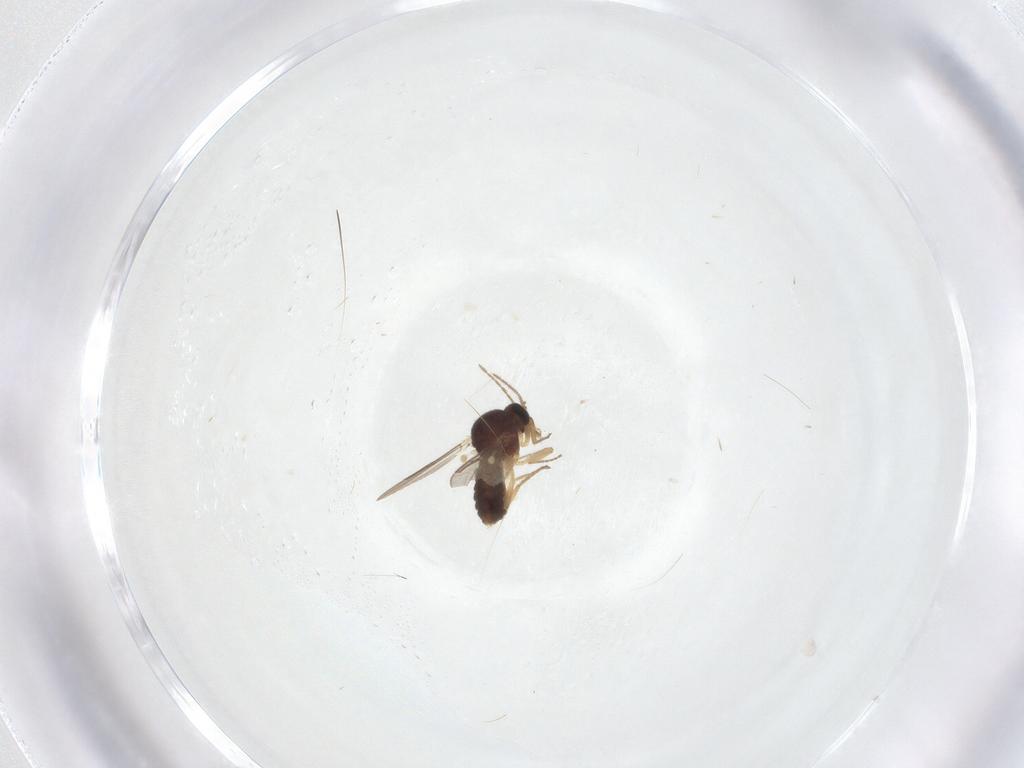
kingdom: Animalia
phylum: Arthropoda
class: Insecta
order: Diptera
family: Ceratopogonidae
